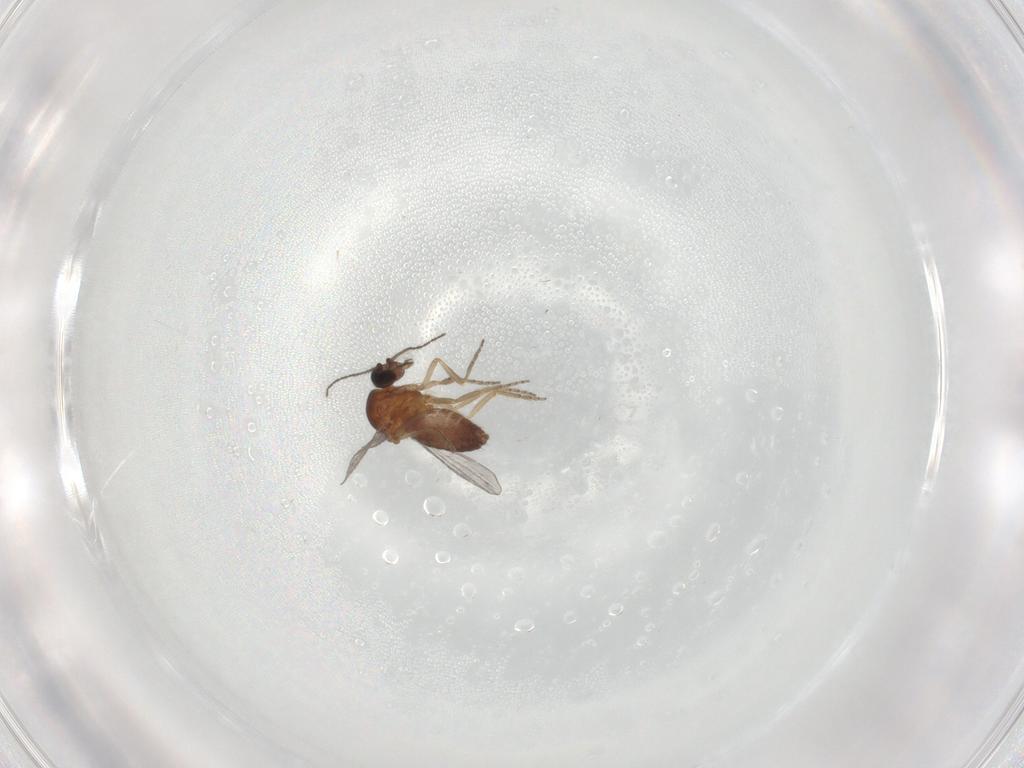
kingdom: Animalia
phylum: Arthropoda
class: Insecta
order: Diptera
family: Ceratopogonidae
